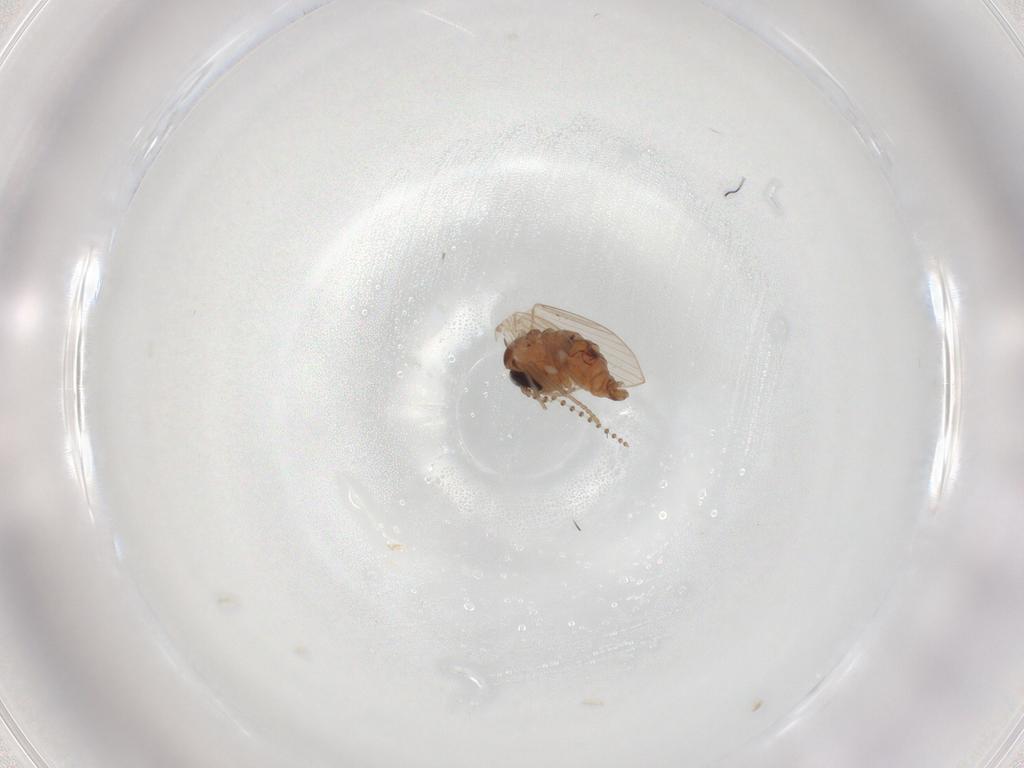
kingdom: Animalia
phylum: Arthropoda
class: Insecta
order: Diptera
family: Psychodidae
